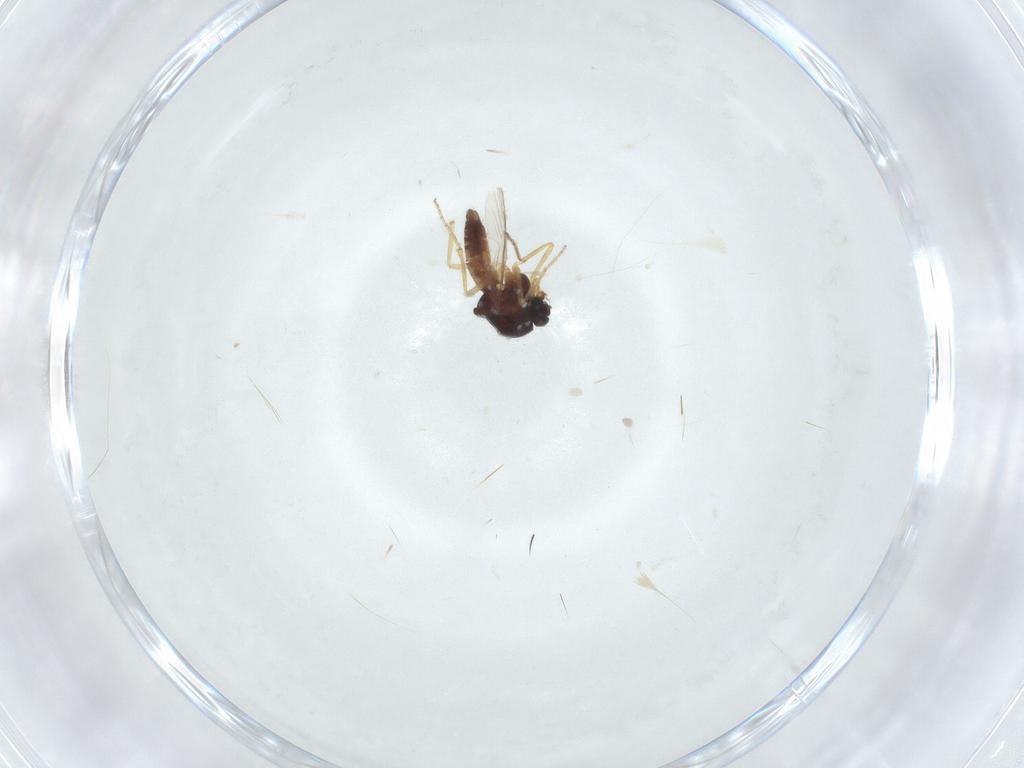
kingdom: Animalia
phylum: Arthropoda
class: Insecta
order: Diptera
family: Ceratopogonidae
